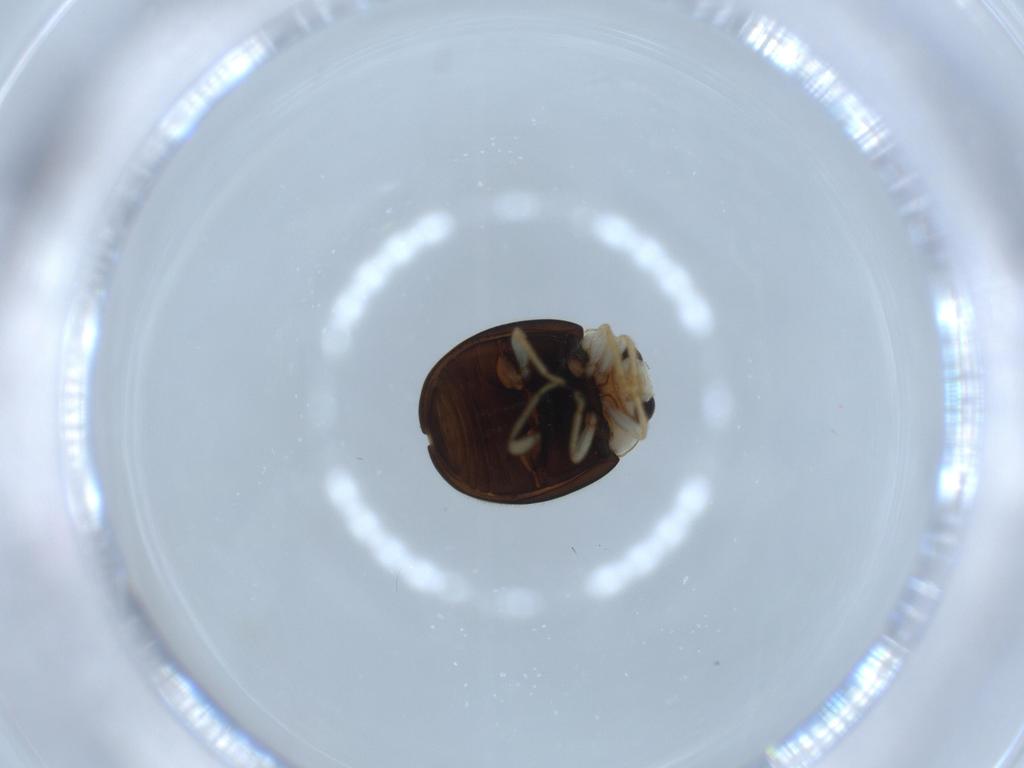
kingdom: Animalia
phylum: Arthropoda
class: Insecta
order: Coleoptera
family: Coccinellidae
